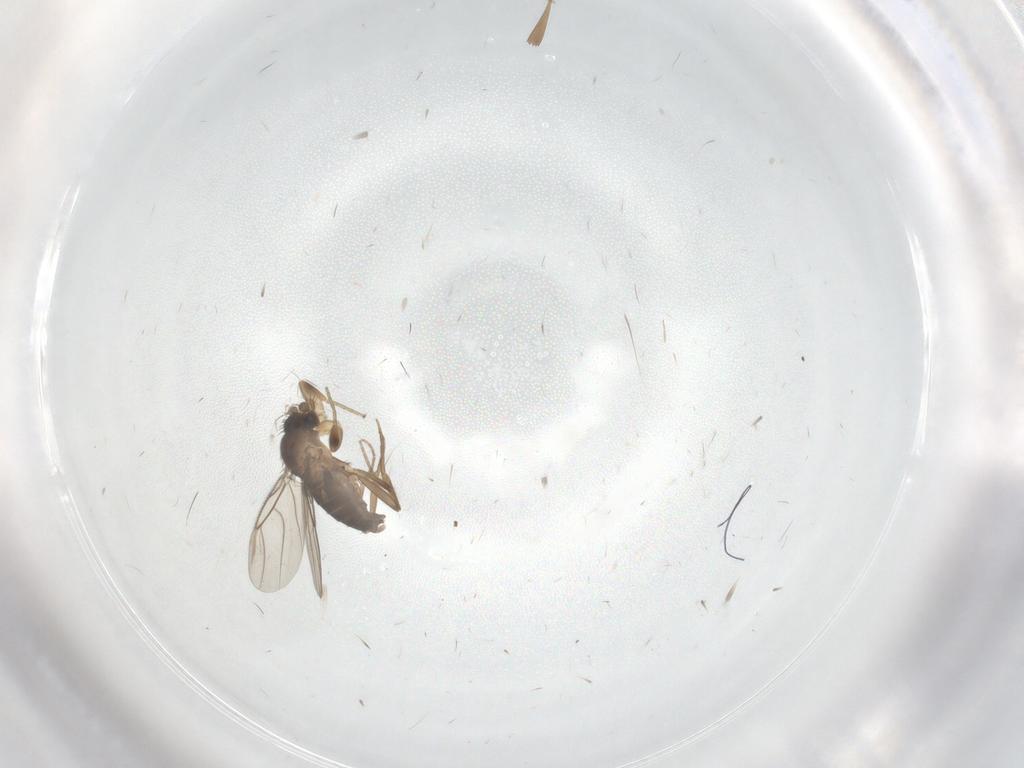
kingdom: Animalia
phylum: Arthropoda
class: Insecta
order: Diptera
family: Phoridae
